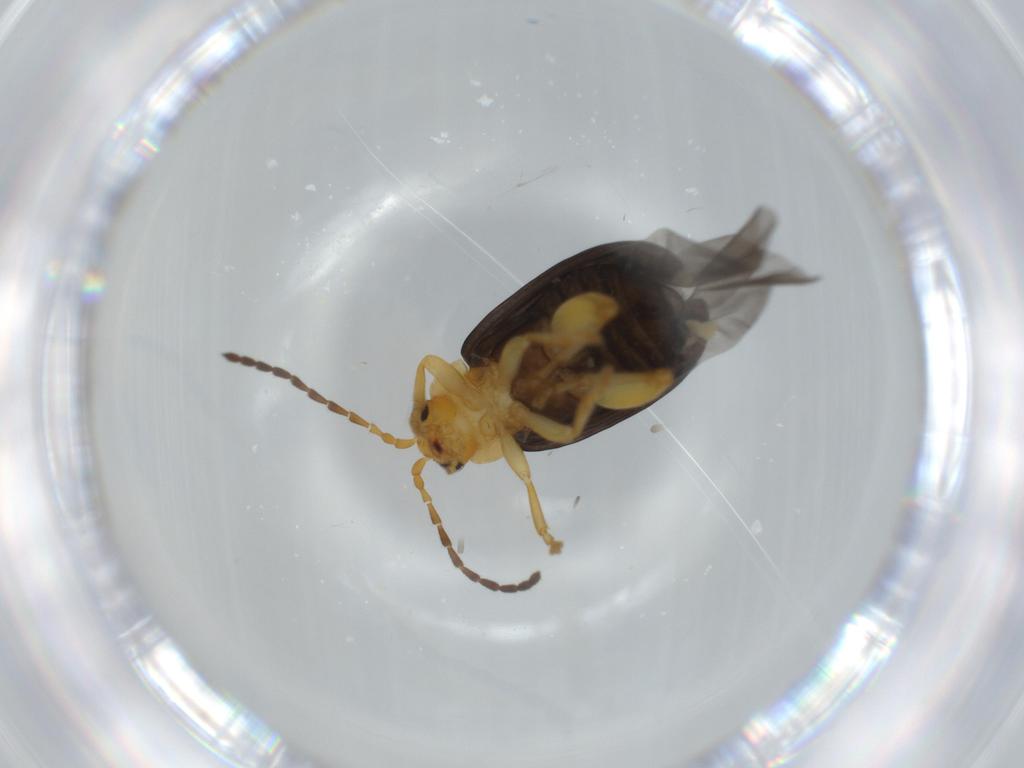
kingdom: Animalia
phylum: Arthropoda
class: Insecta
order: Coleoptera
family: Chrysomelidae
